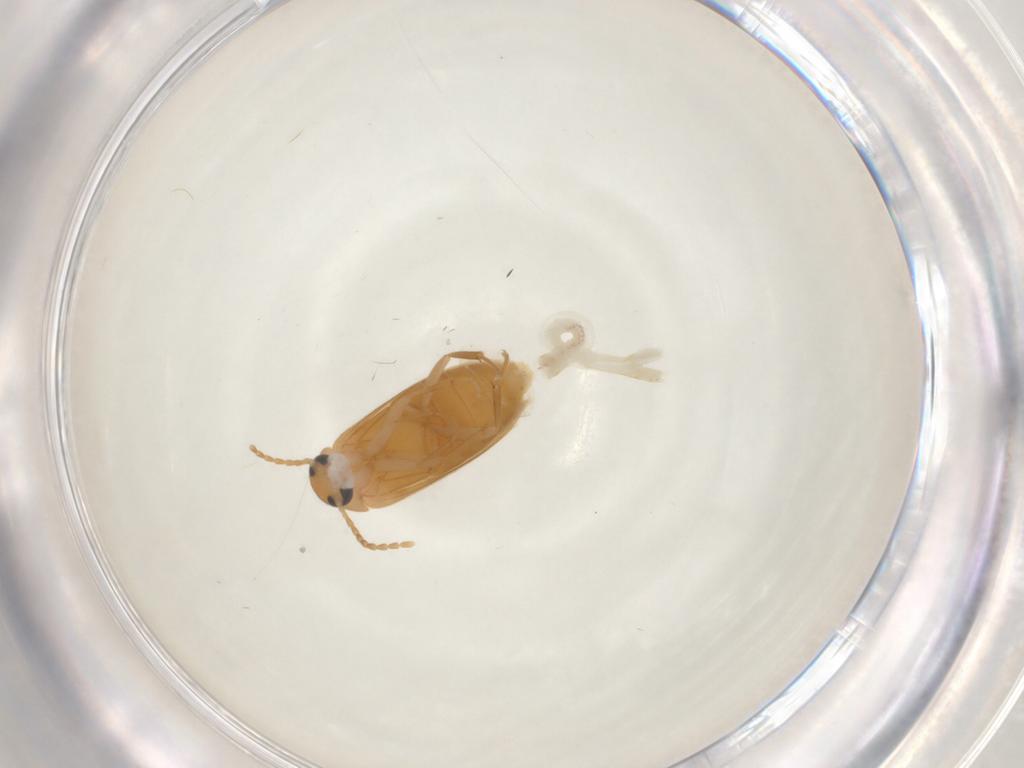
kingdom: Animalia
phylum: Arthropoda
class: Insecta
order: Coleoptera
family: Scraptiidae
